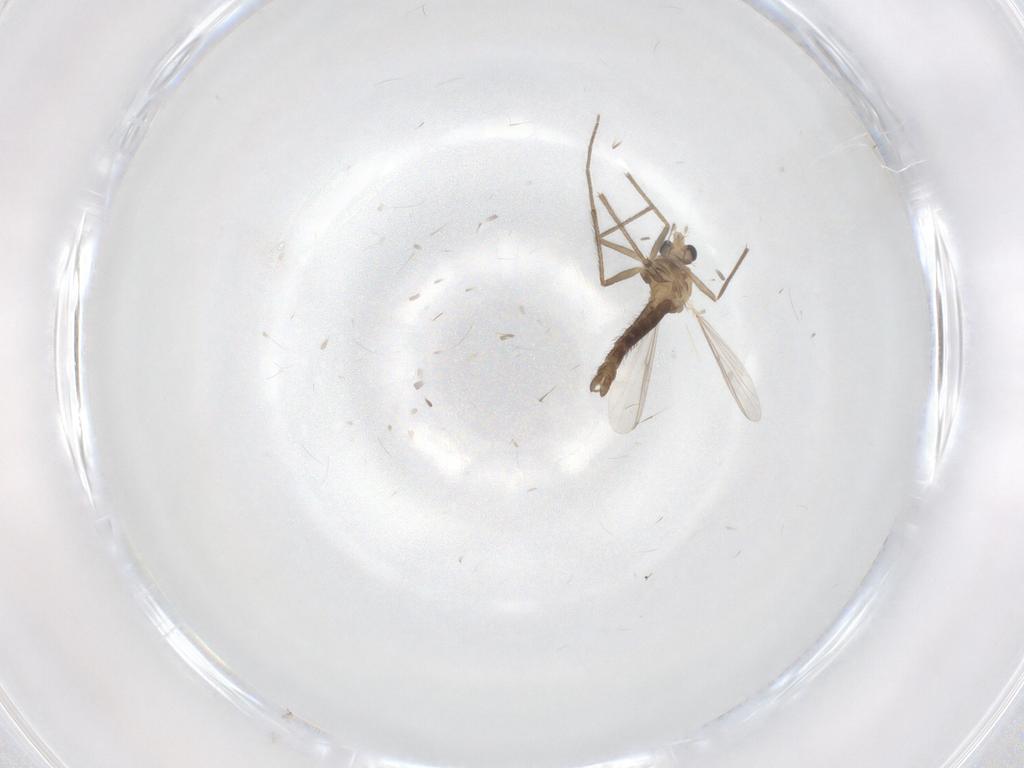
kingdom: Animalia
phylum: Arthropoda
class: Insecta
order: Diptera
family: Chironomidae
